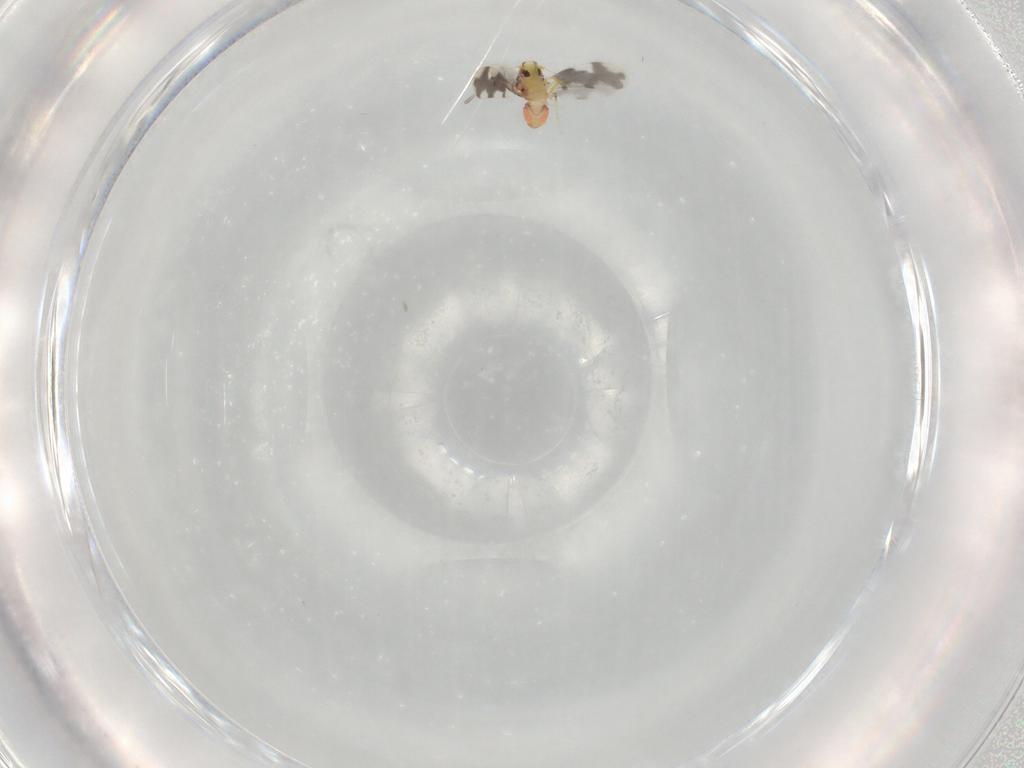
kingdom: Animalia
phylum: Arthropoda
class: Insecta
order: Hemiptera
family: Aleyrodidae
